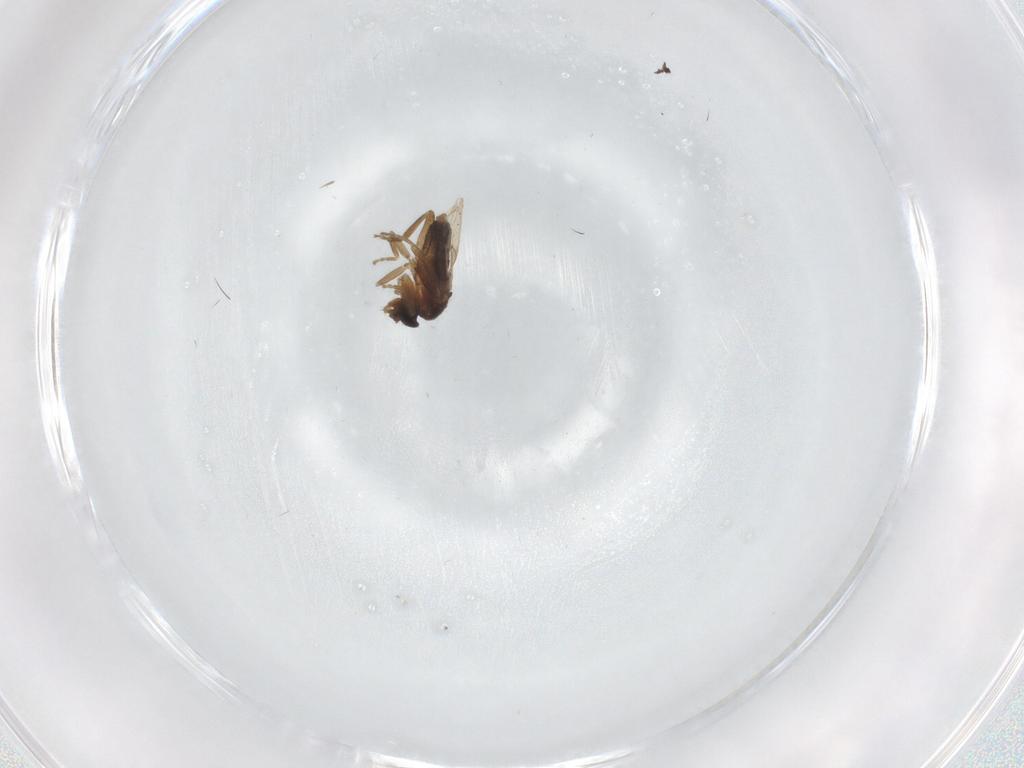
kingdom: Animalia
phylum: Arthropoda
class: Insecta
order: Diptera
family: Phoridae
